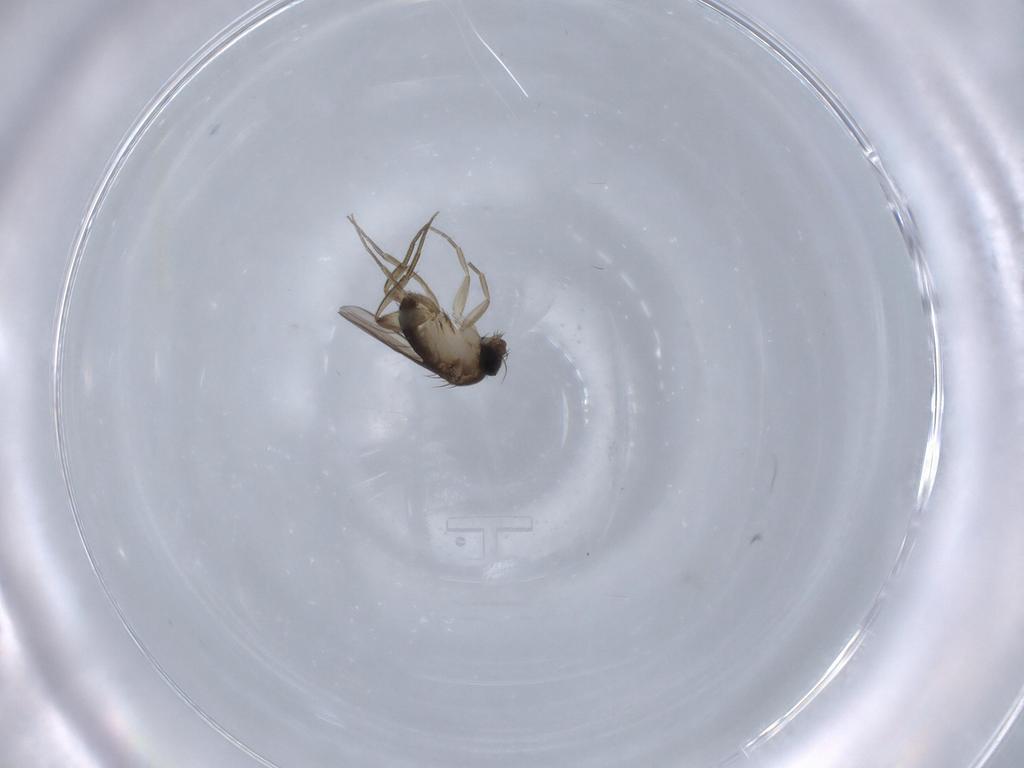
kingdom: Animalia
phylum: Arthropoda
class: Insecta
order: Diptera
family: Phoridae
